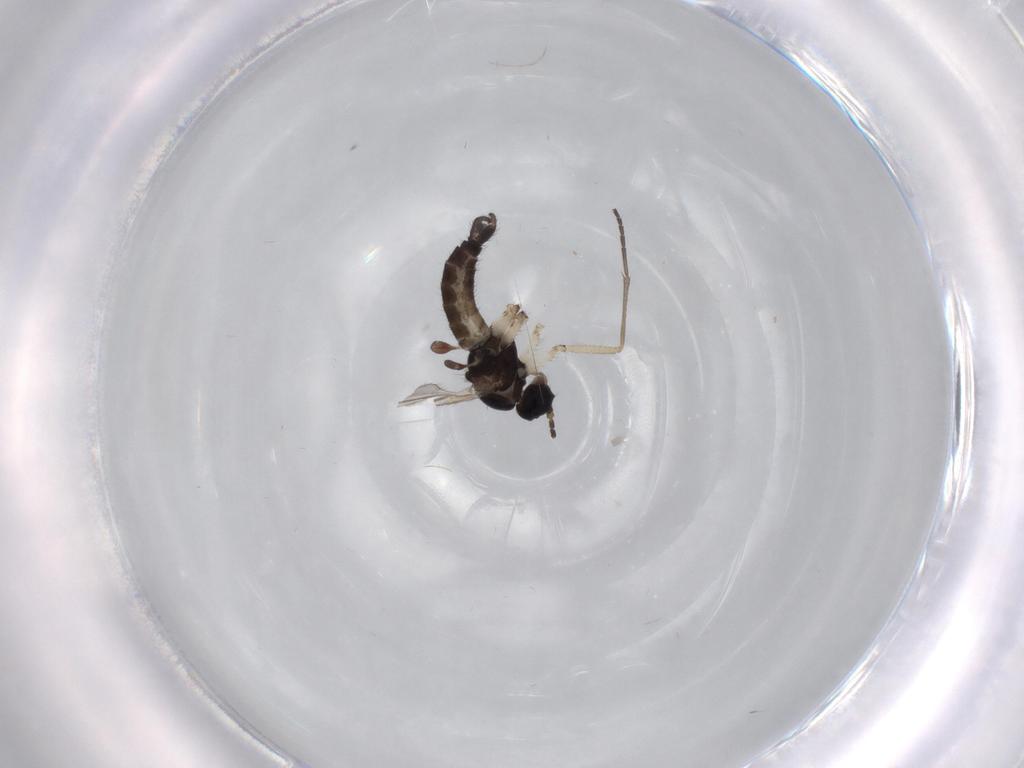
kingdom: Animalia
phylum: Arthropoda
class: Insecta
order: Diptera
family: Sciaridae
